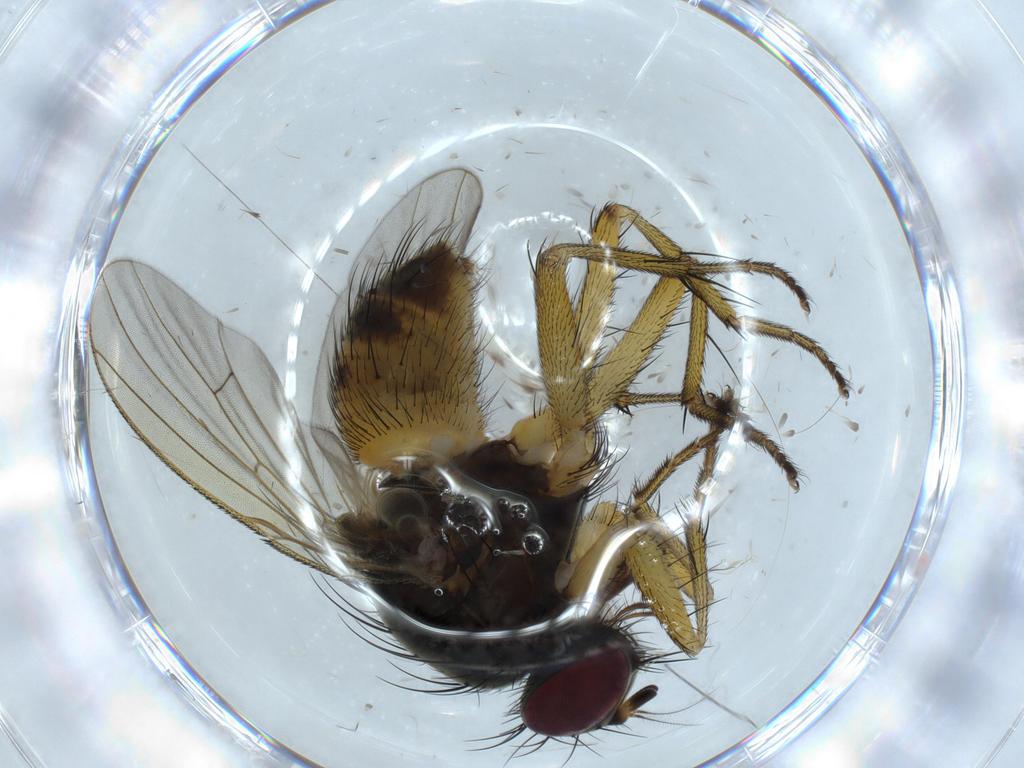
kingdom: Animalia
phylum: Arthropoda
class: Insecta
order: Diptera
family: Muscidae
